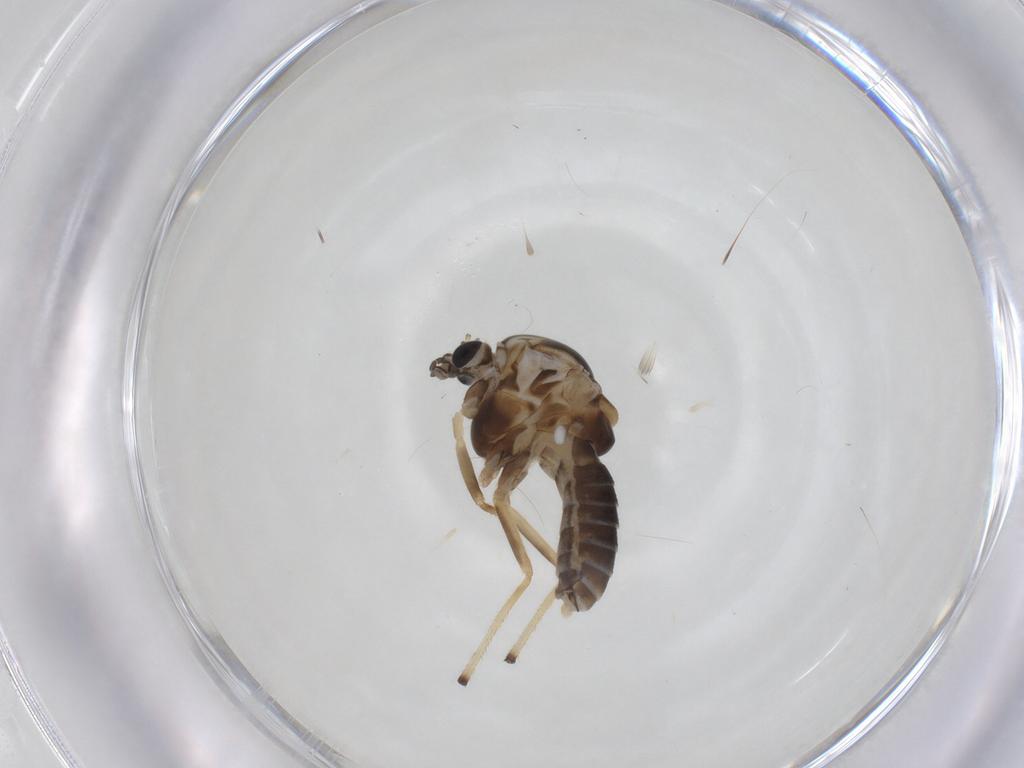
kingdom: Animalia
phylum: Arthropoda
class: Insecta
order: Diptera
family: Chironomidae
